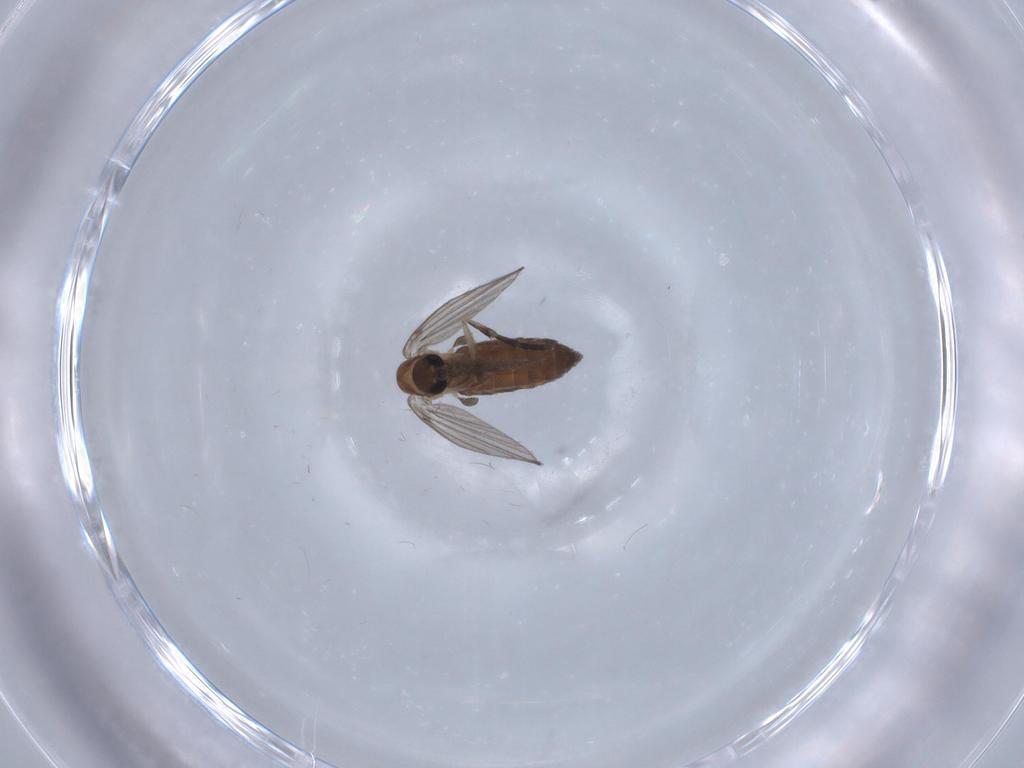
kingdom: Animalia
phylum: Arthropoda
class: Insecta
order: Diptera
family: Psychodidae
